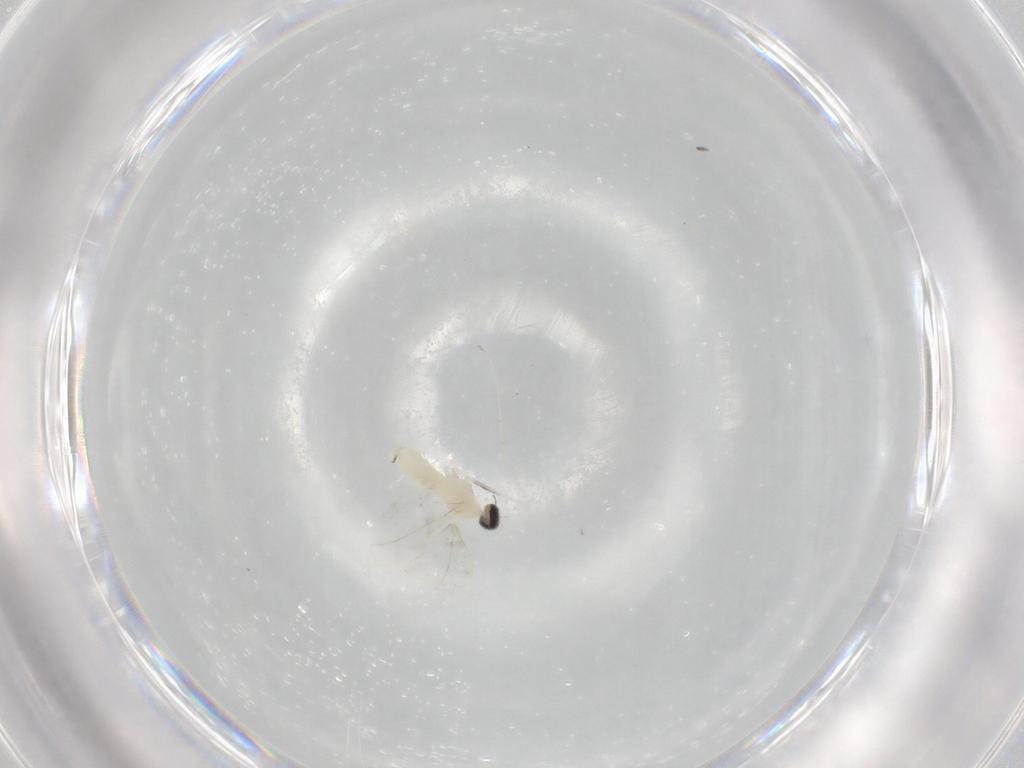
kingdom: Animalia
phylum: Arthropoda
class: Insecta
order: Diptera
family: Cecidomyiidae
